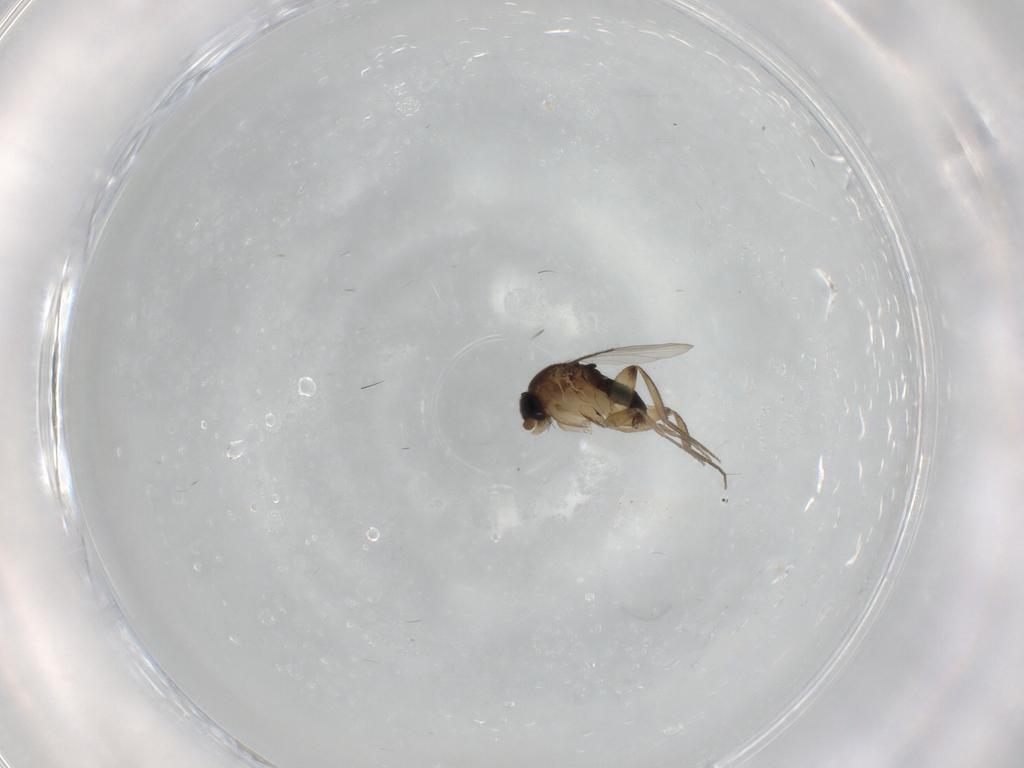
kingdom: Animalia
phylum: Arthropoda
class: Insecta
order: Diptera
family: Phoridae
